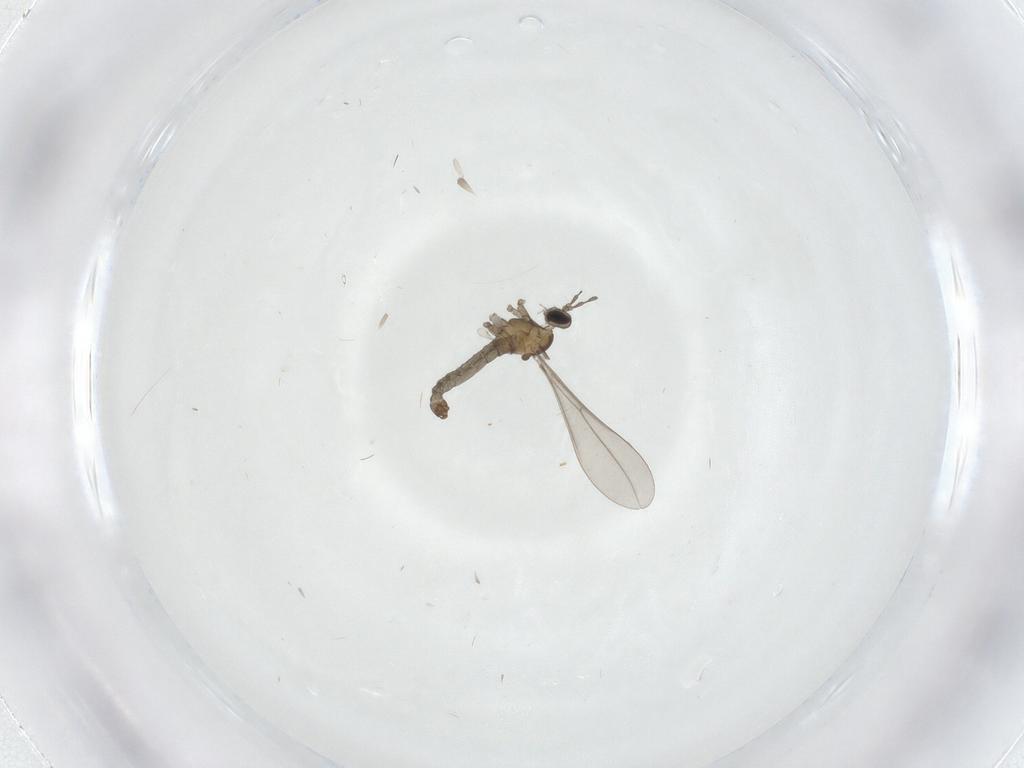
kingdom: Animalia
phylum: Arthropoda
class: Insecta
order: Diptera
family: Cecidomyiidae
